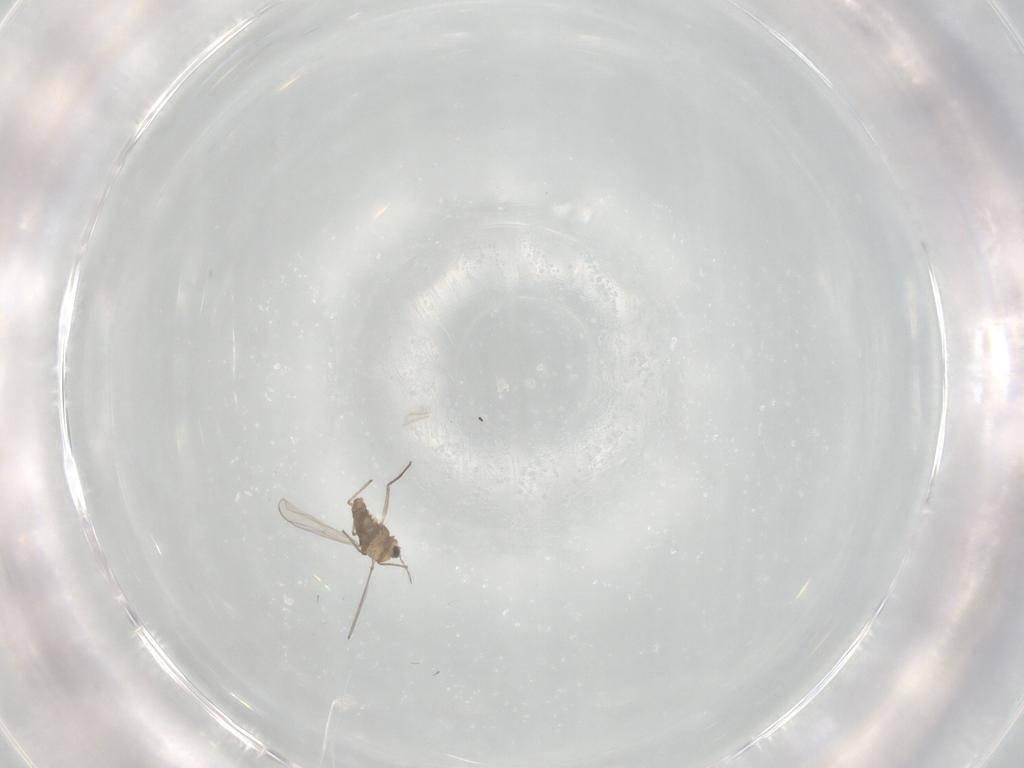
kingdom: Animalia
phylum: Arthropoda
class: Insecta
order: Diptera
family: Cecidomyiidae
